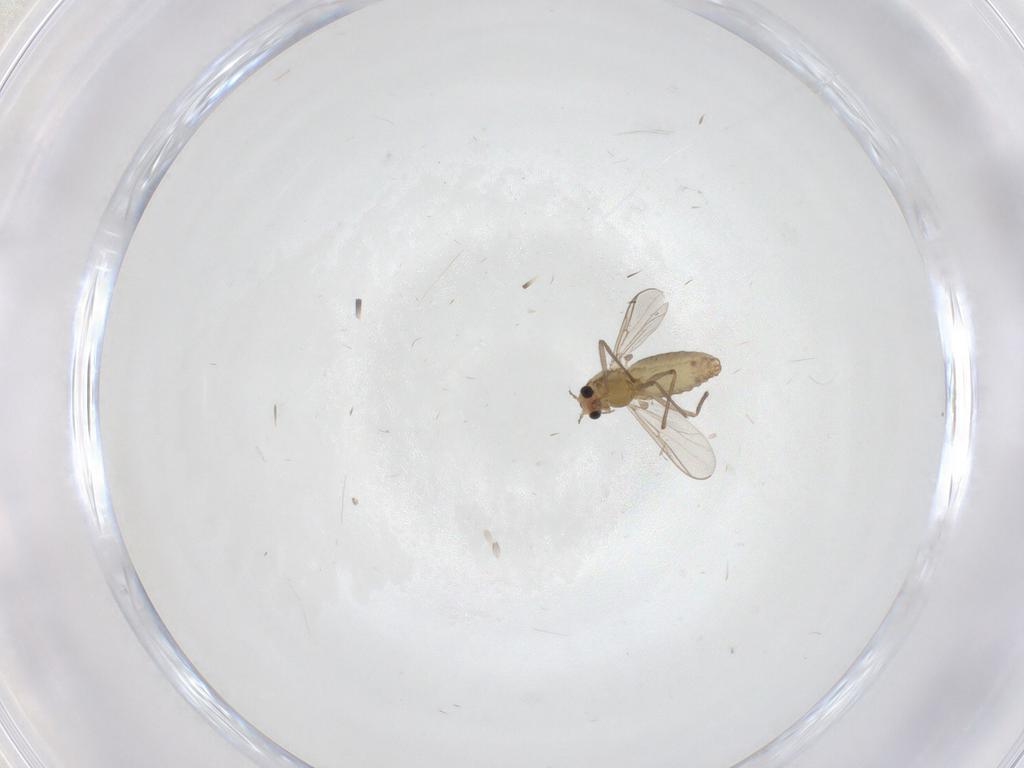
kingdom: Animalia
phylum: Arthropoda
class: Insecta
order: Diptera
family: Chironomidae
